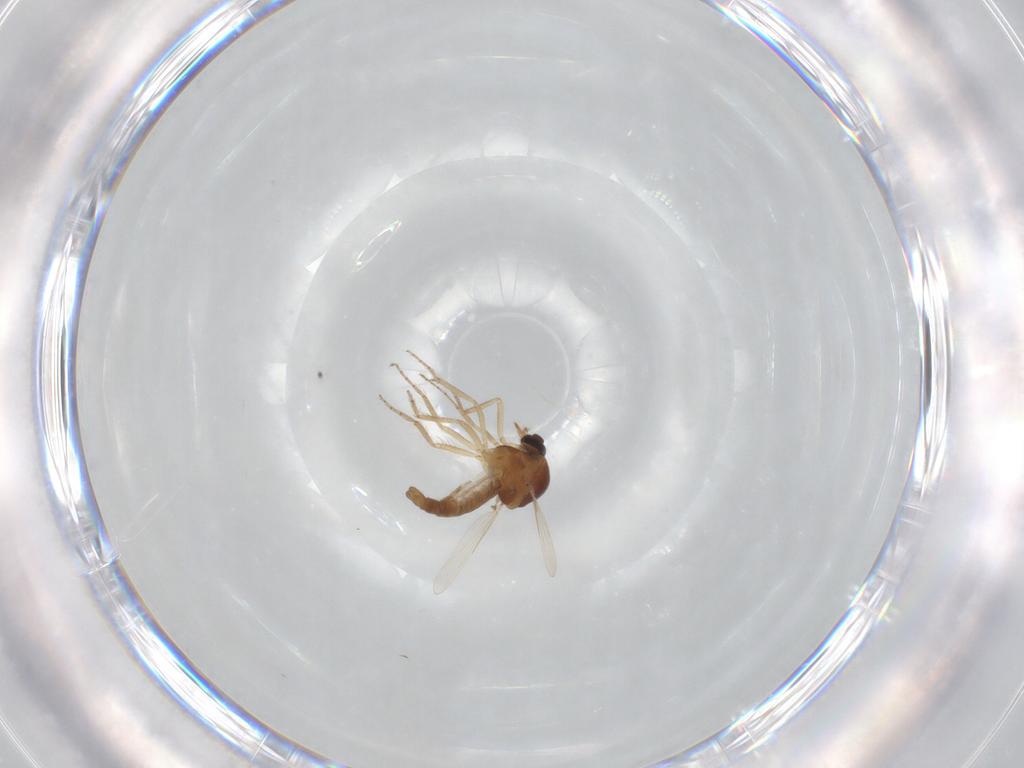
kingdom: Animalia
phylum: Arthropoda
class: Insecta
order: Diptera
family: Ceratopogonidae
